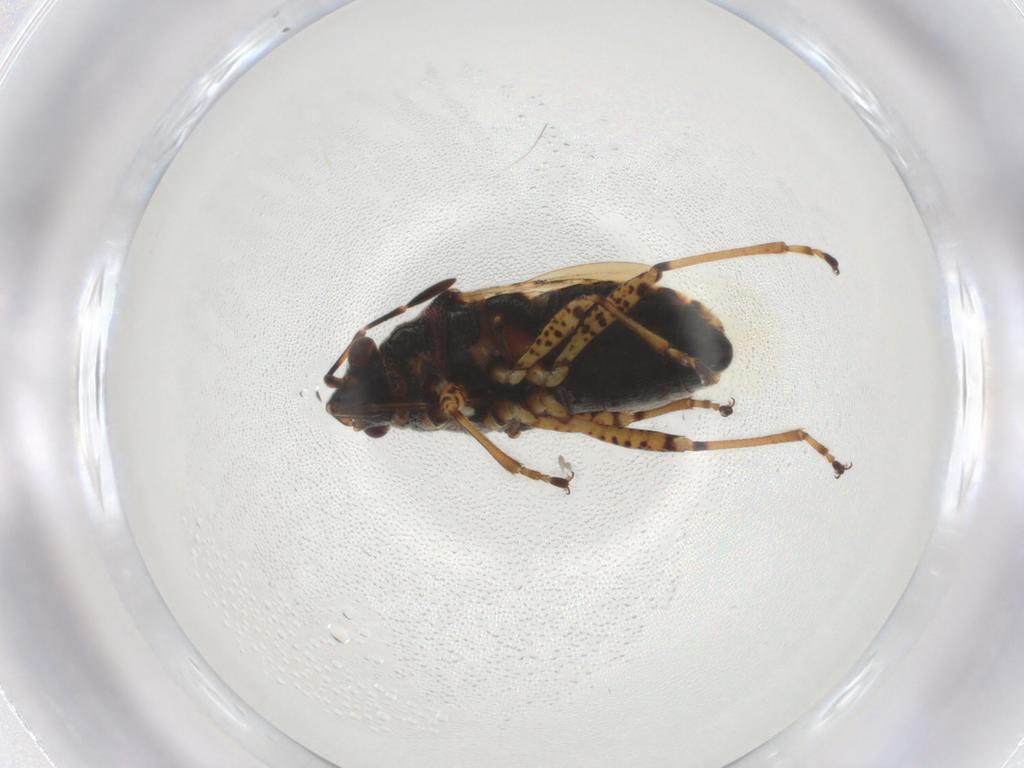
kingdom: Animalia
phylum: Arthropoda
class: Insecta
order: Hemiptera
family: Lygaeidae
